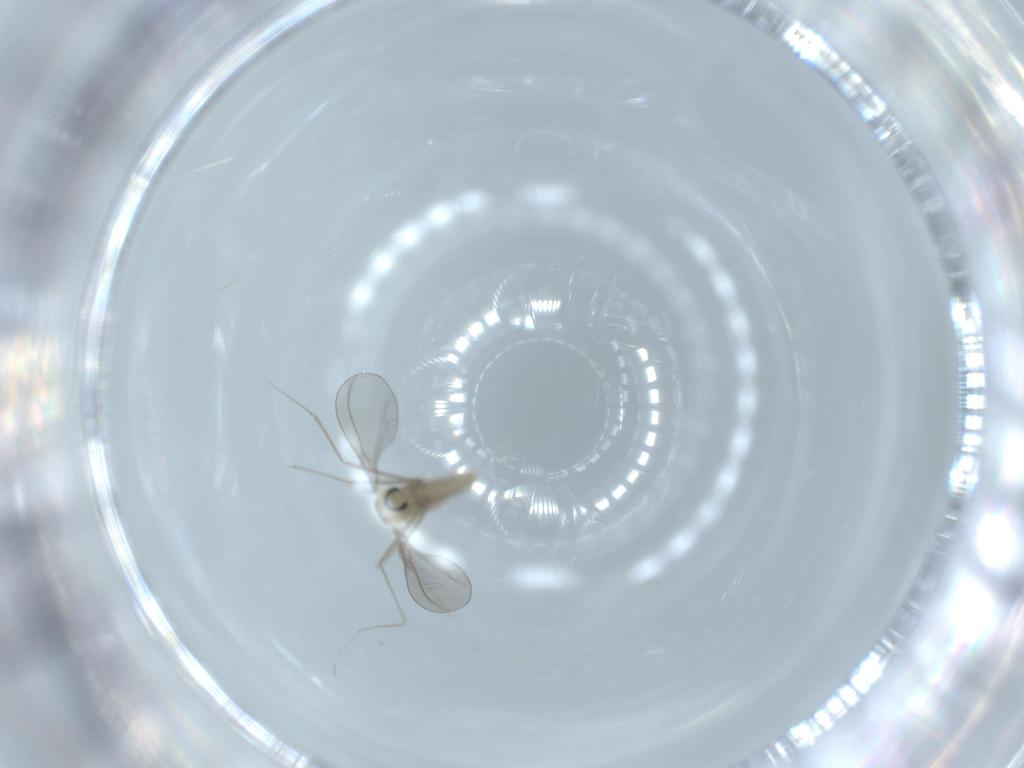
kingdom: Animalia
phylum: Arthropoda
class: Insecta
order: Diptera
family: Cecidomyiidae
